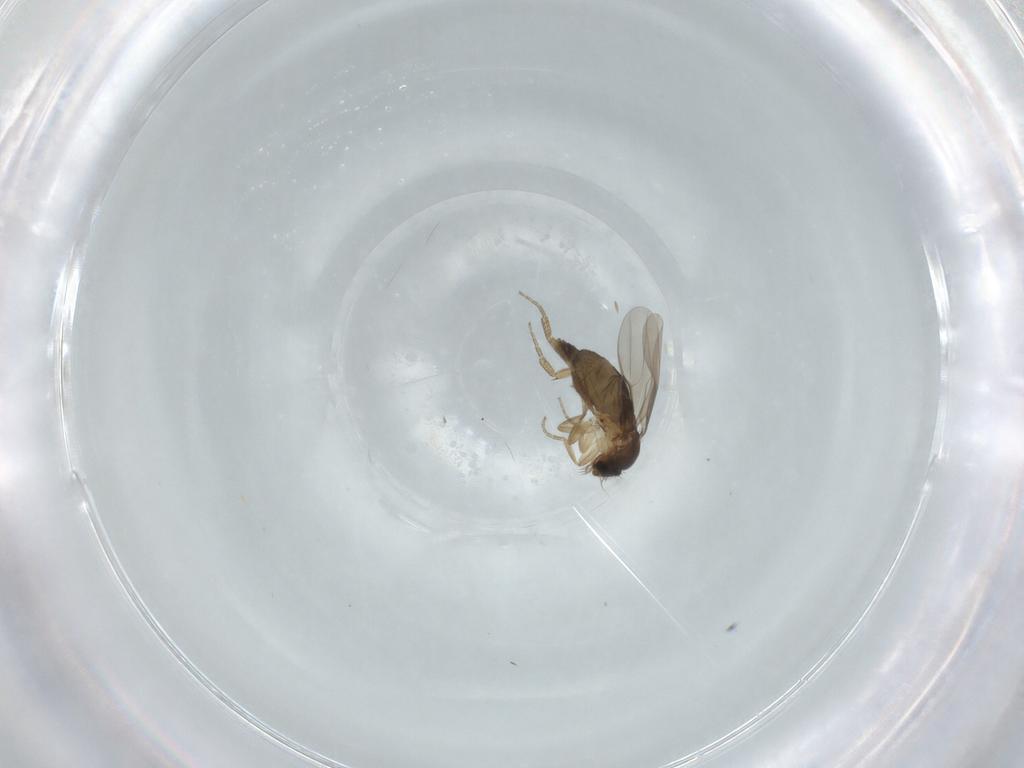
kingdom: Animalia
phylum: Arthropoda
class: Insecta
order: Diptera
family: Phoridae
